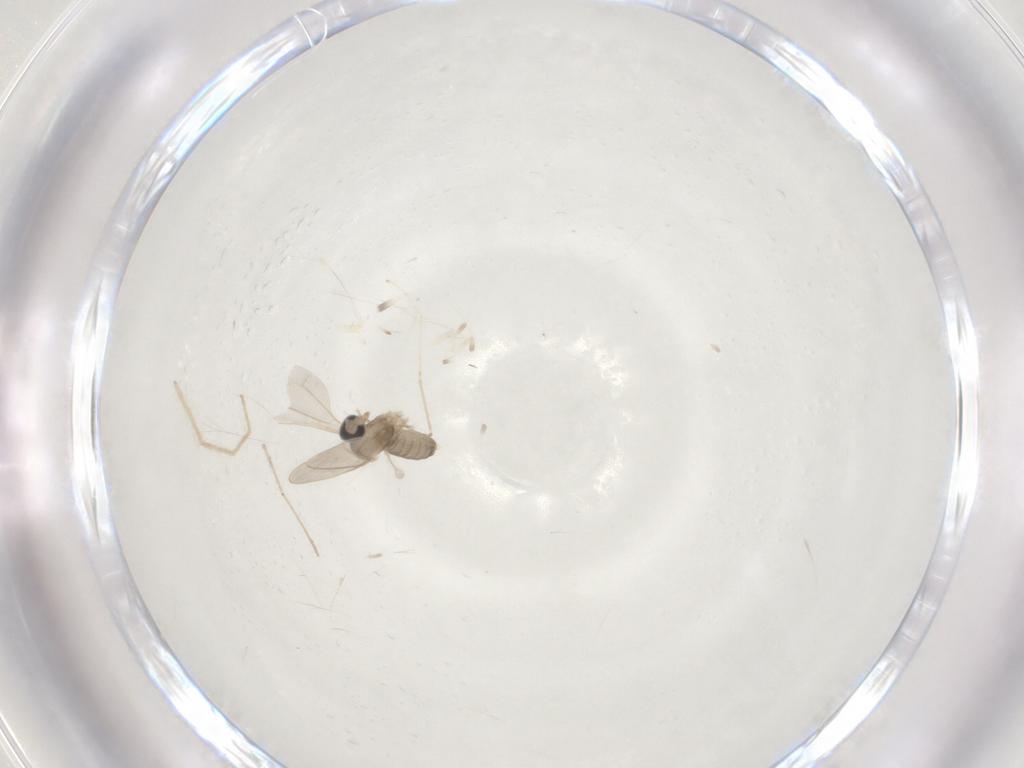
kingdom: Animalia
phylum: Arthropoda
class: Insecta
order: Diptera
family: Cecidomyiidae
